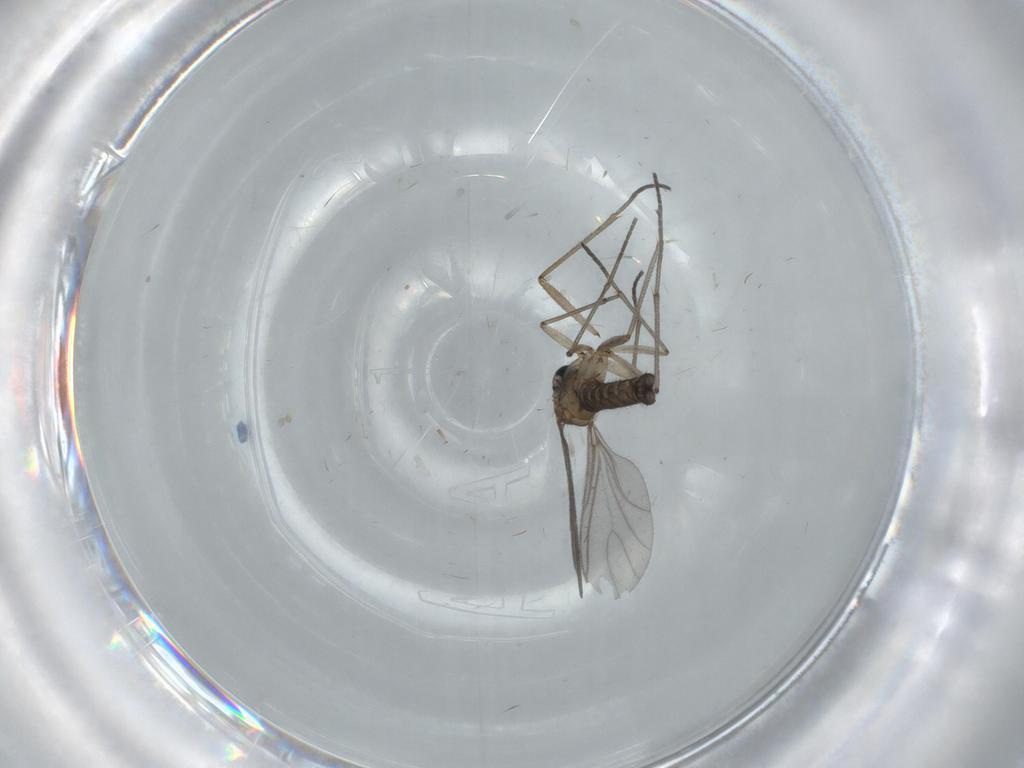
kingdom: Animalia
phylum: Arthropoda
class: Insecta
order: Diptera
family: Sciaridae
